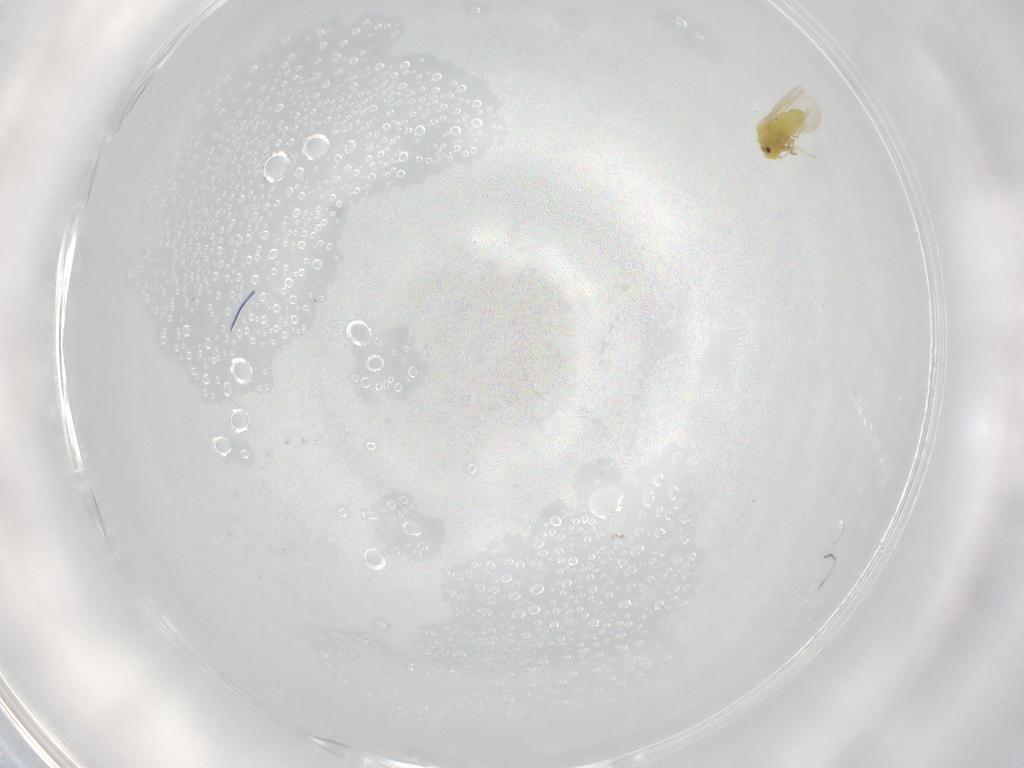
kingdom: Animalia
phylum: Arthropoda
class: Insecta
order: Hemiptera
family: Aleyrodidae
